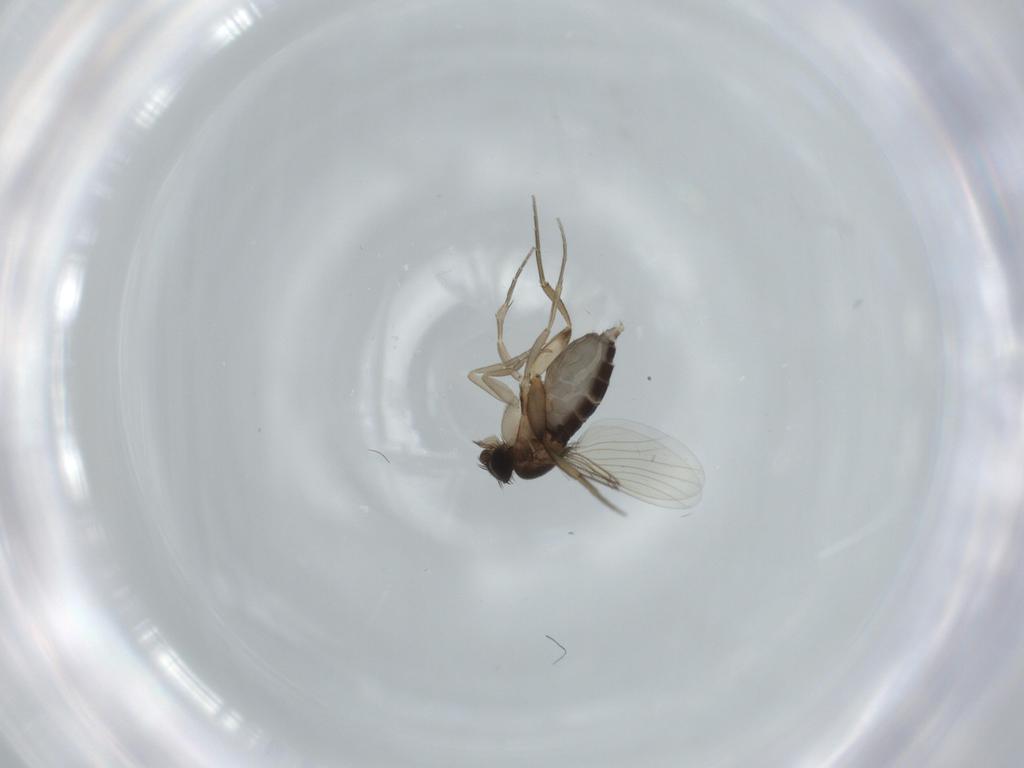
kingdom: Animalia
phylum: Arthropoda
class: Insecta
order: Diptera
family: Phoridae
